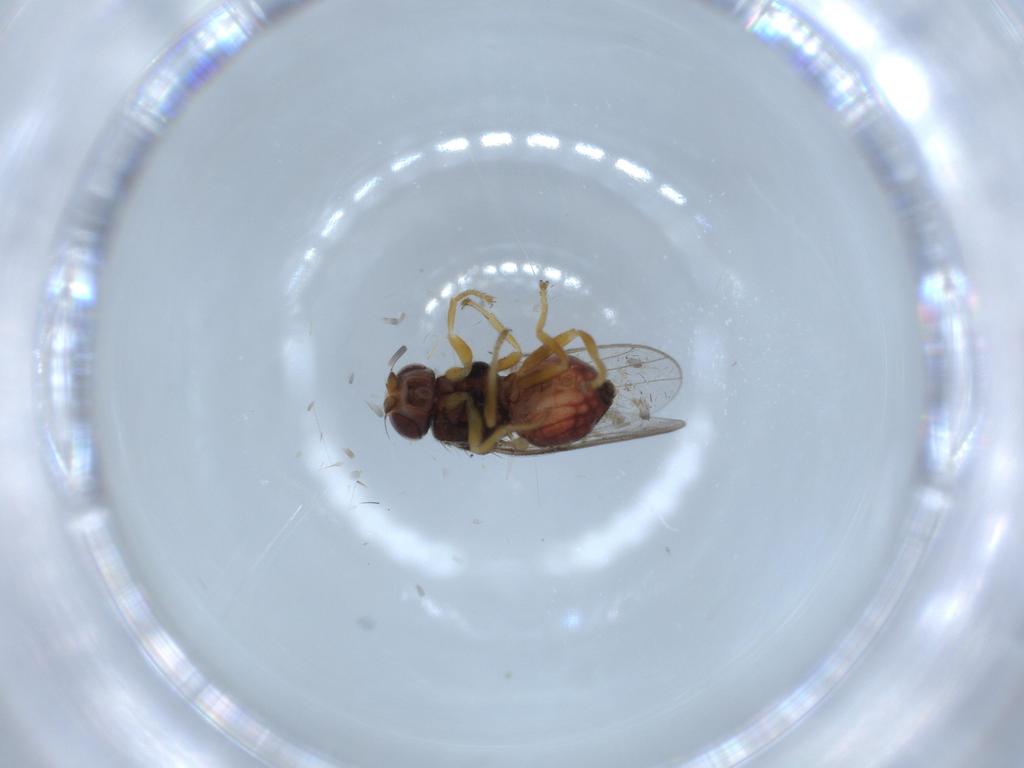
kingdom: Animalia
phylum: Arthropoda
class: Insecta
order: Diptera
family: Chloropidae
